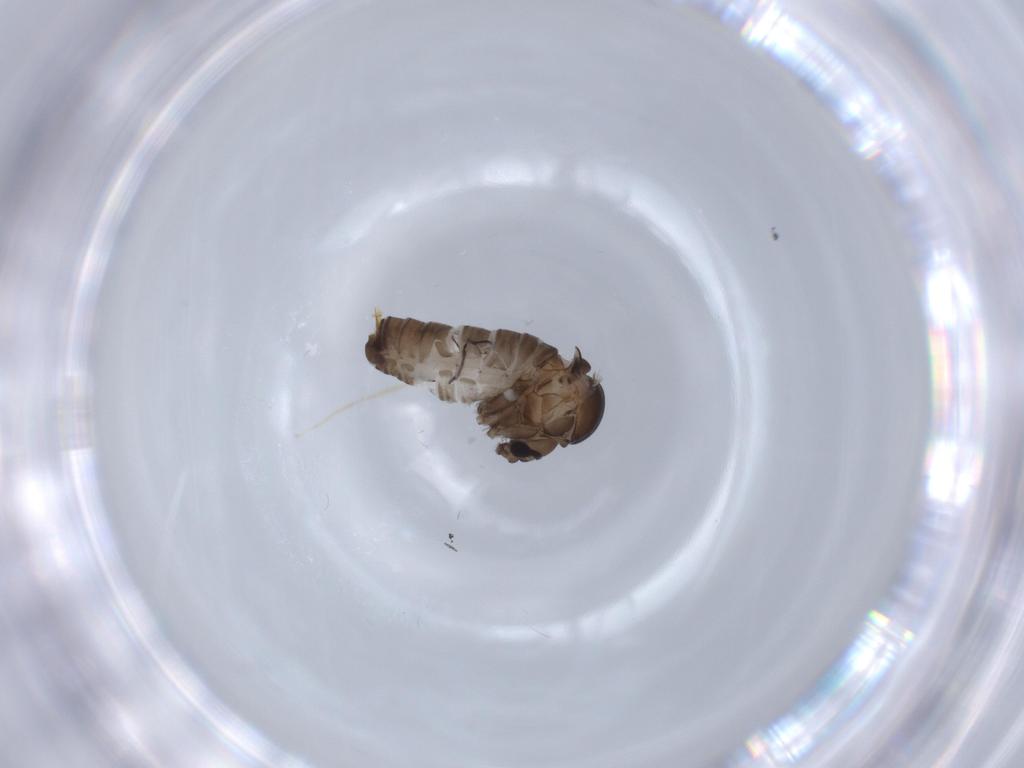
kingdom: Animalia
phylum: Arthropoda
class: Insecta
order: Diptera
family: Psychodidae
